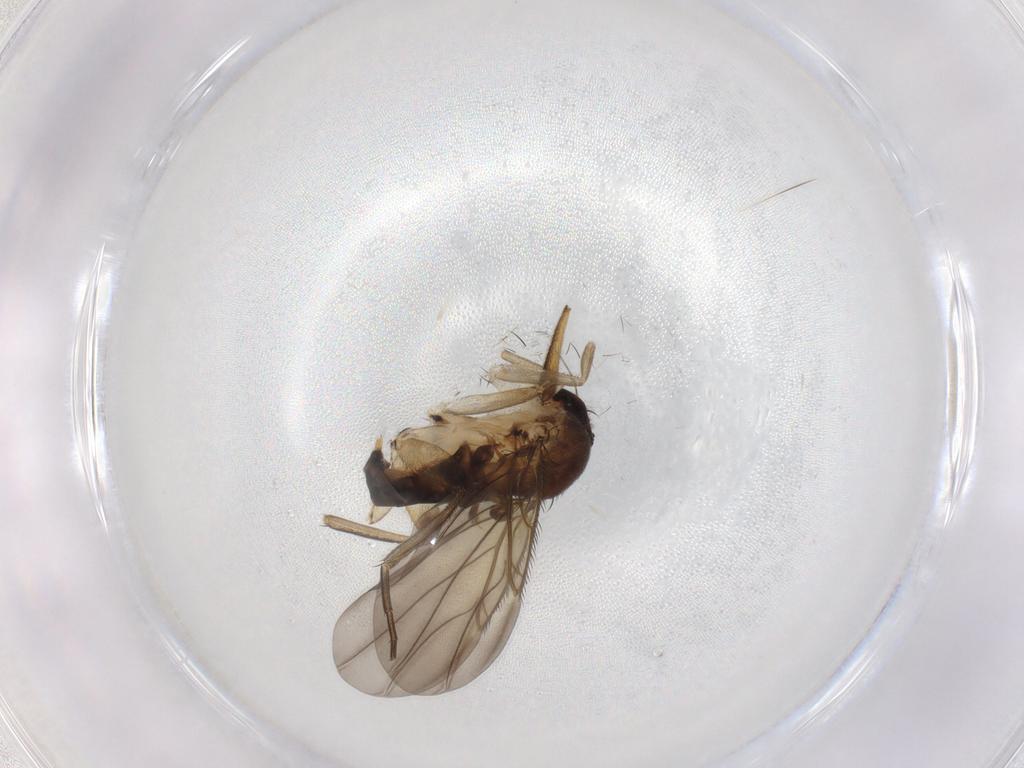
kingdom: Animalia
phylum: Arthropoda
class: Insecta
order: Diptera
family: Phoridae
